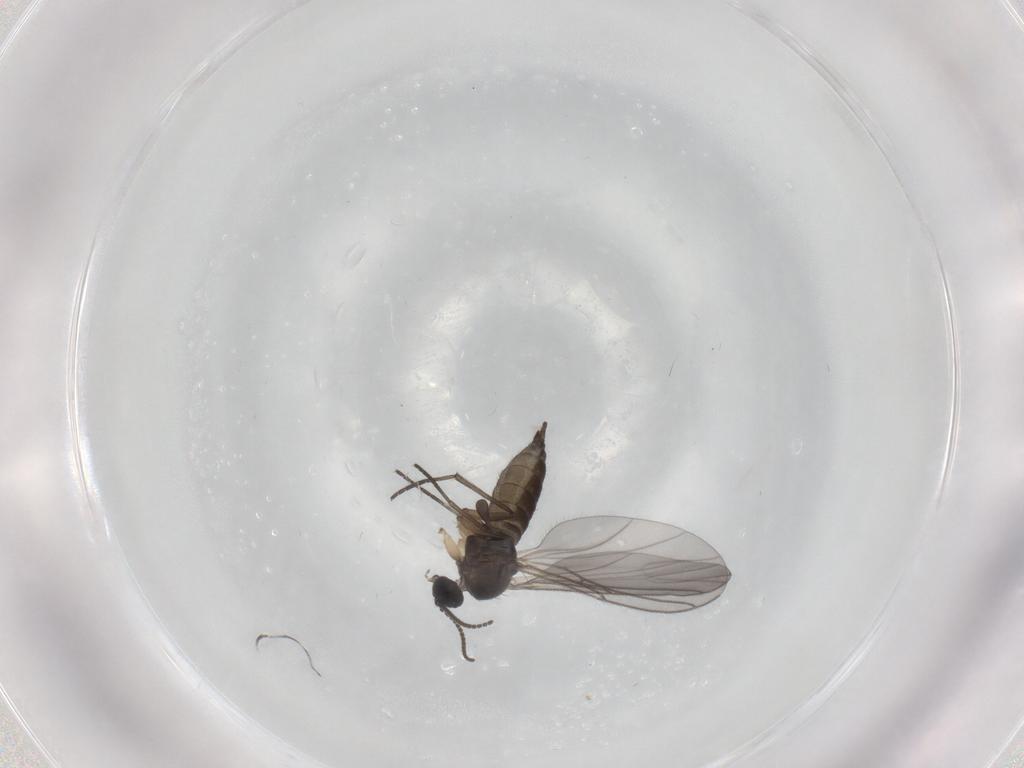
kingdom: Animalia
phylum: Arthropoda
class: Insecta
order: Diptera
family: Sciaridae
